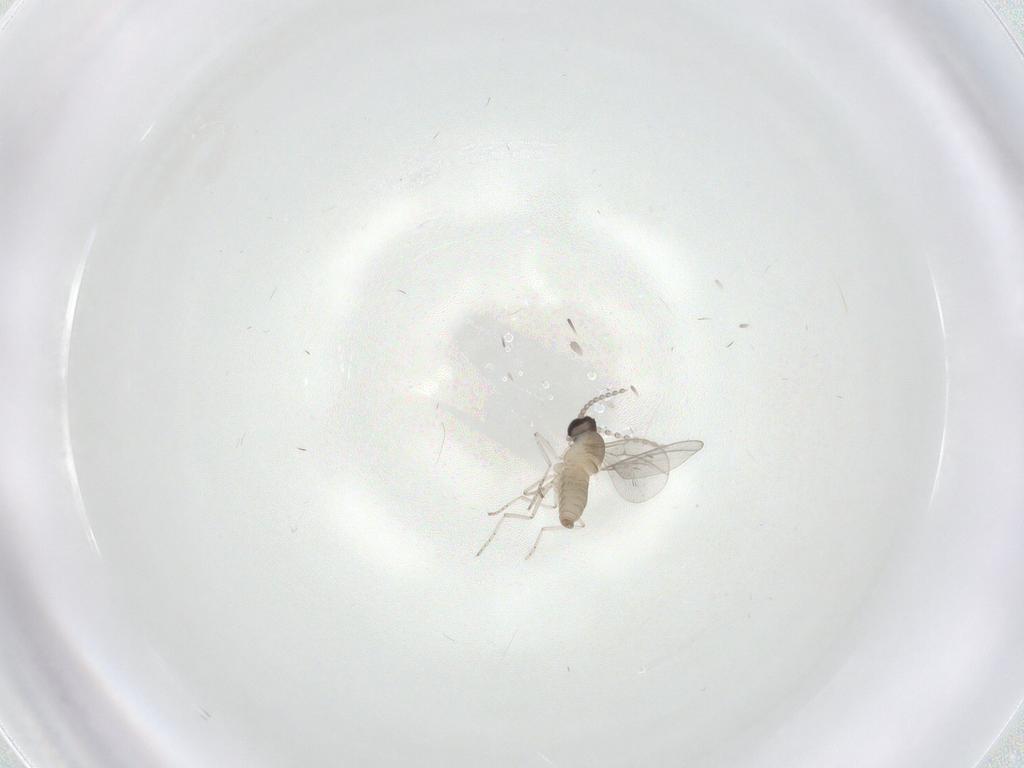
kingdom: Animalia
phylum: Arthropoda
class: Insecta
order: Diptera
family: Cecidomyiidae
